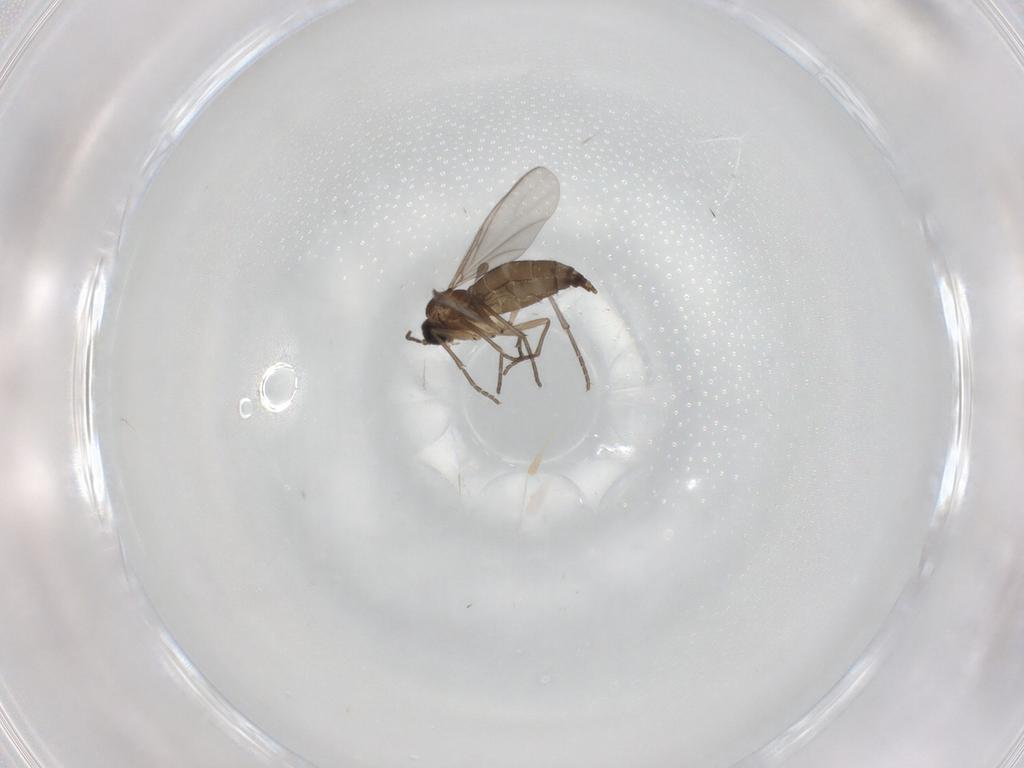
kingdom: Animalia
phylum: Arthropoda
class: Insecta
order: Diptera
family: Sciaridae
